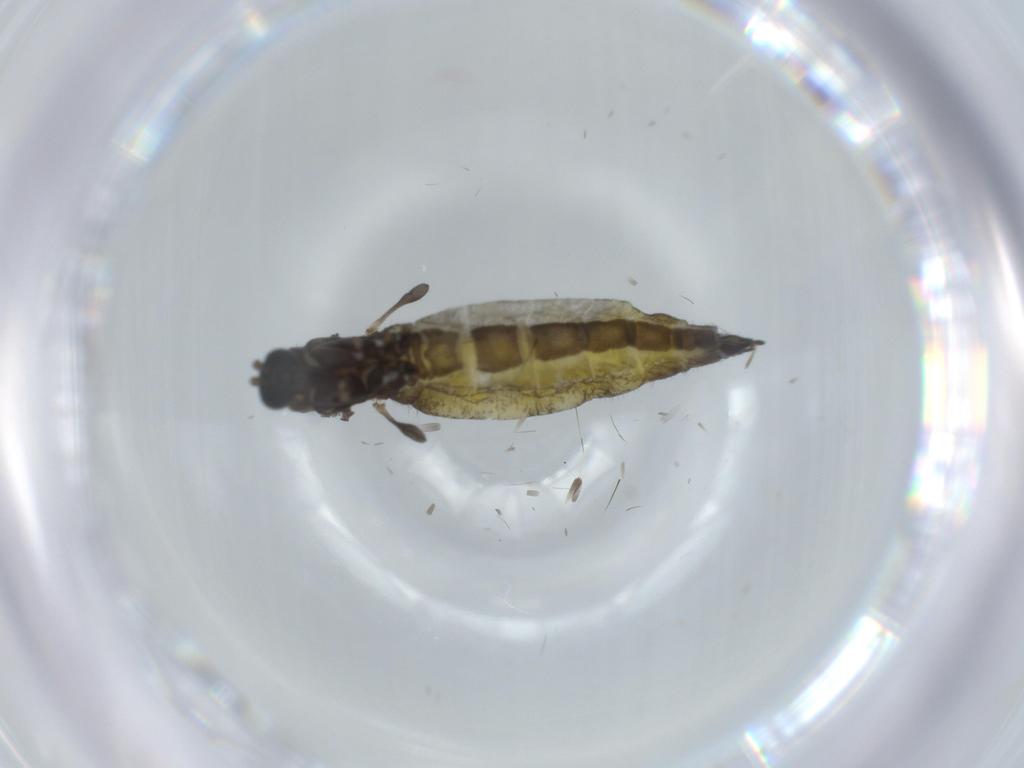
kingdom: Animalia
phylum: Arthropoda
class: Insecta
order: Diptera
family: Sciaridae
